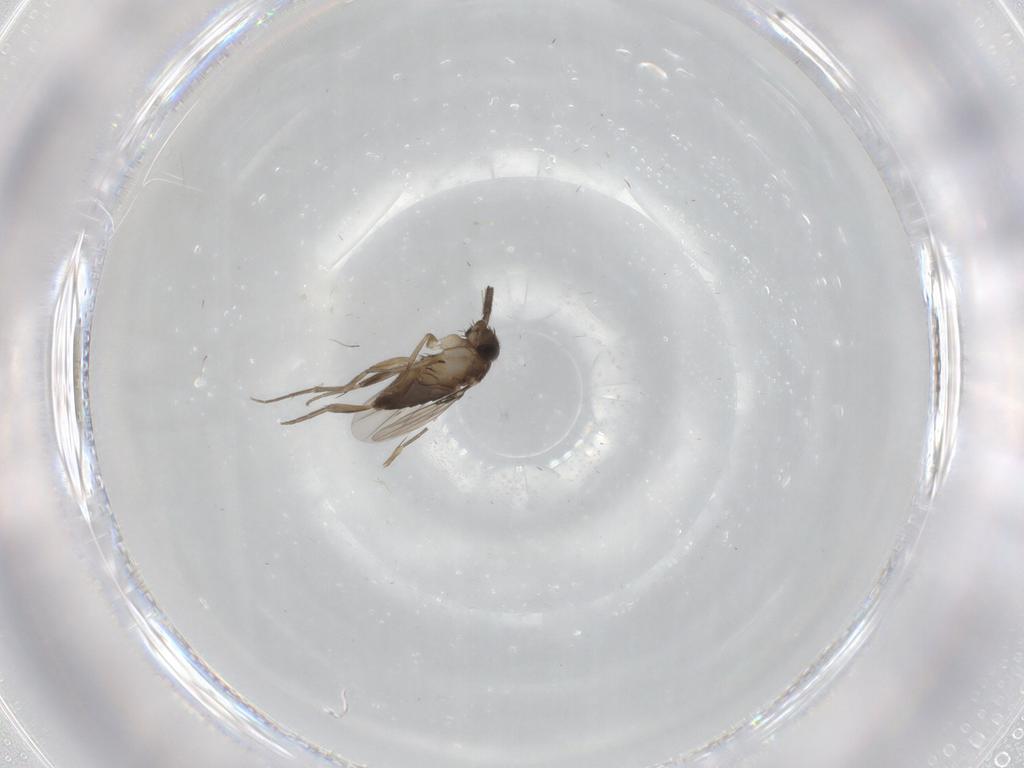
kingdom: Animalia
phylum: Arthropoda
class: Insecta
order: Diptera
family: Phoridae
